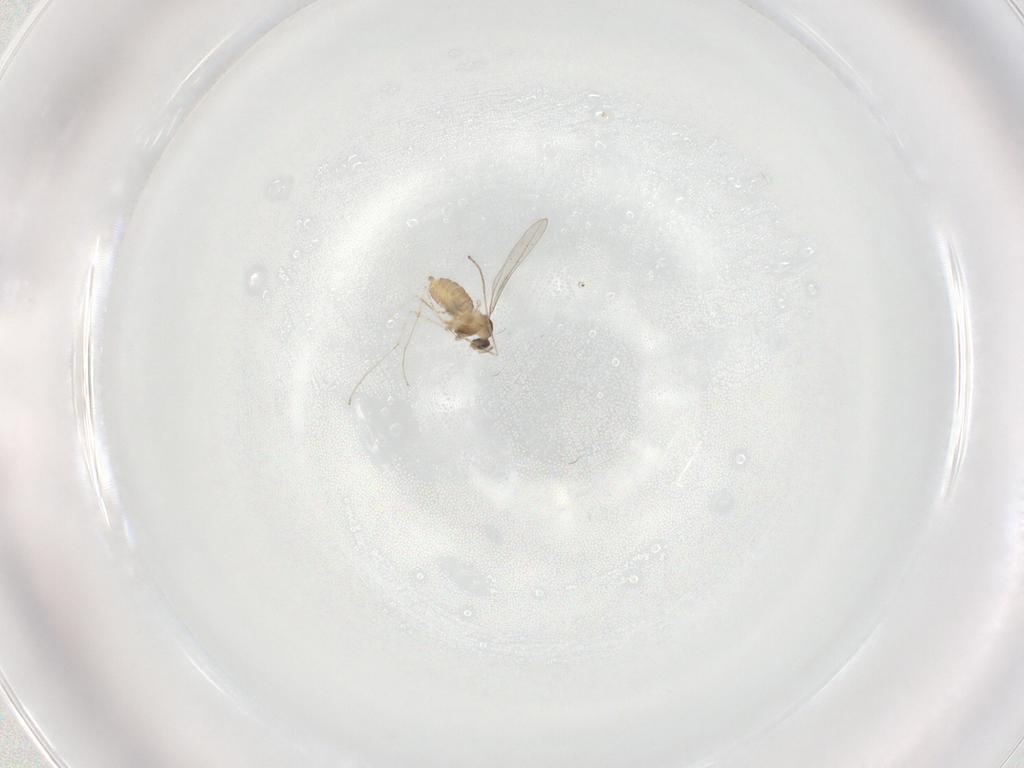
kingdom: Animalia
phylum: Arthropoda
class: Insecta
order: Diptera
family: Cecidomyiidae
